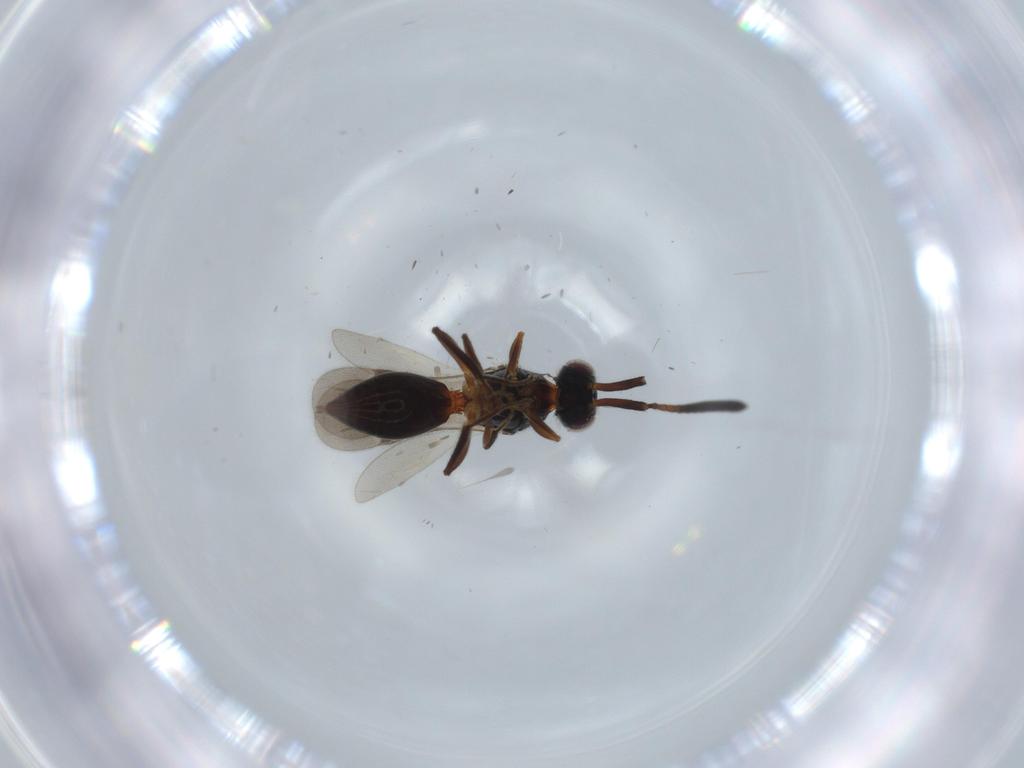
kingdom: Animalia
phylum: Arthropoda
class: Insecta
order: Hymenoptera
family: Megaspilidae
